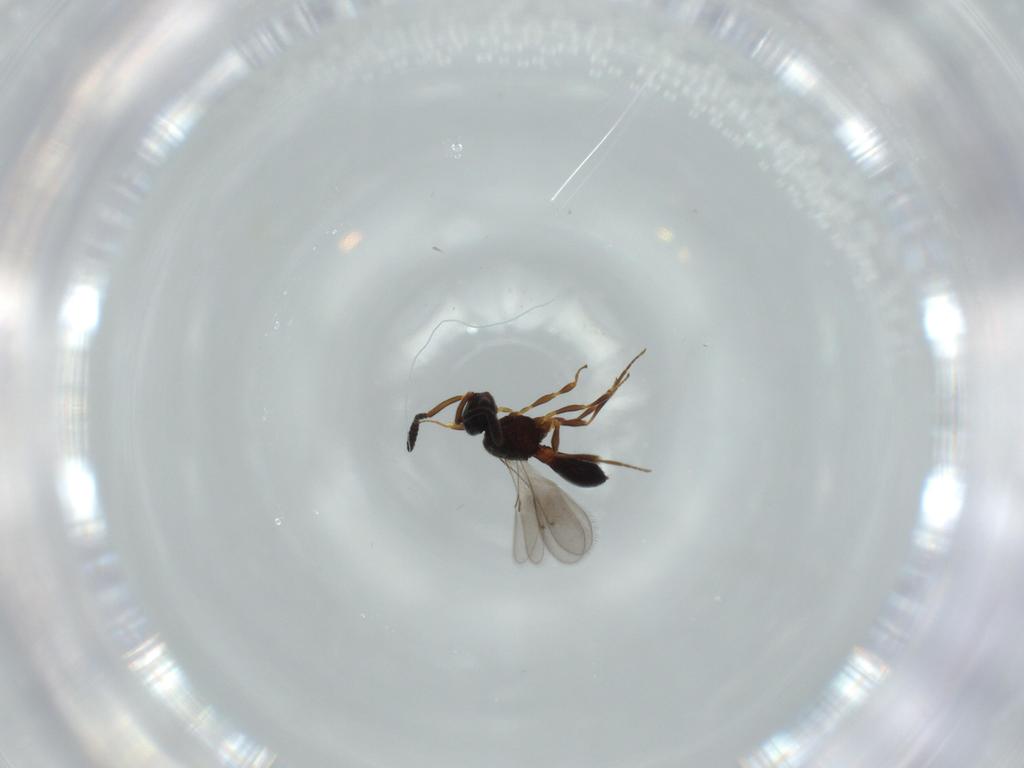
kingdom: Animalia
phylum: Arthropoda
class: Insecta
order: Hymenoptera
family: Scelionidae
